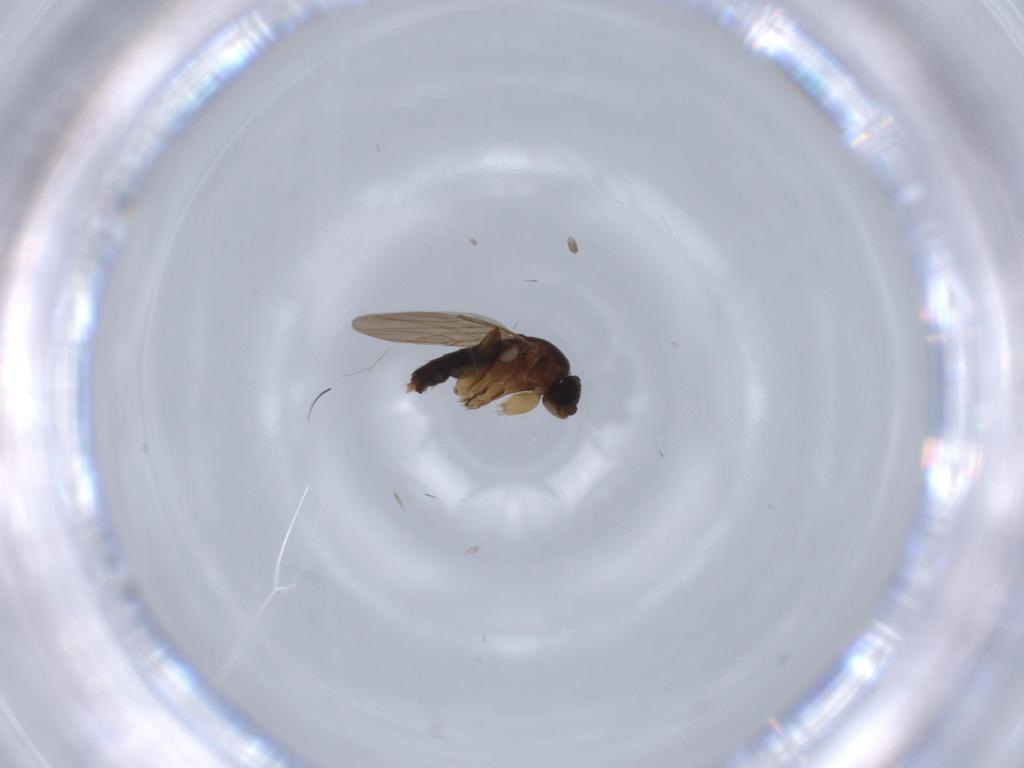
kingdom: Animalia
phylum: Arthropoda
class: Insecta
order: Diptera
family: Phoridae
